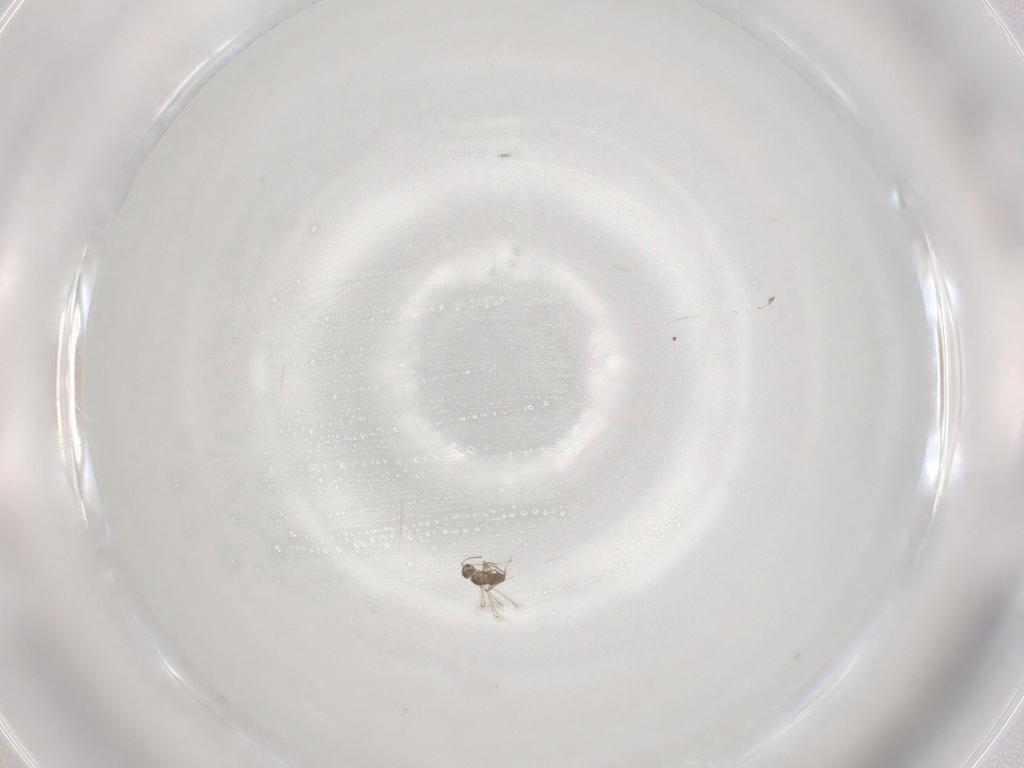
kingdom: Animalia
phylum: Arthropoda
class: Insecta
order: Hymenoptera
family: Mymaridae
